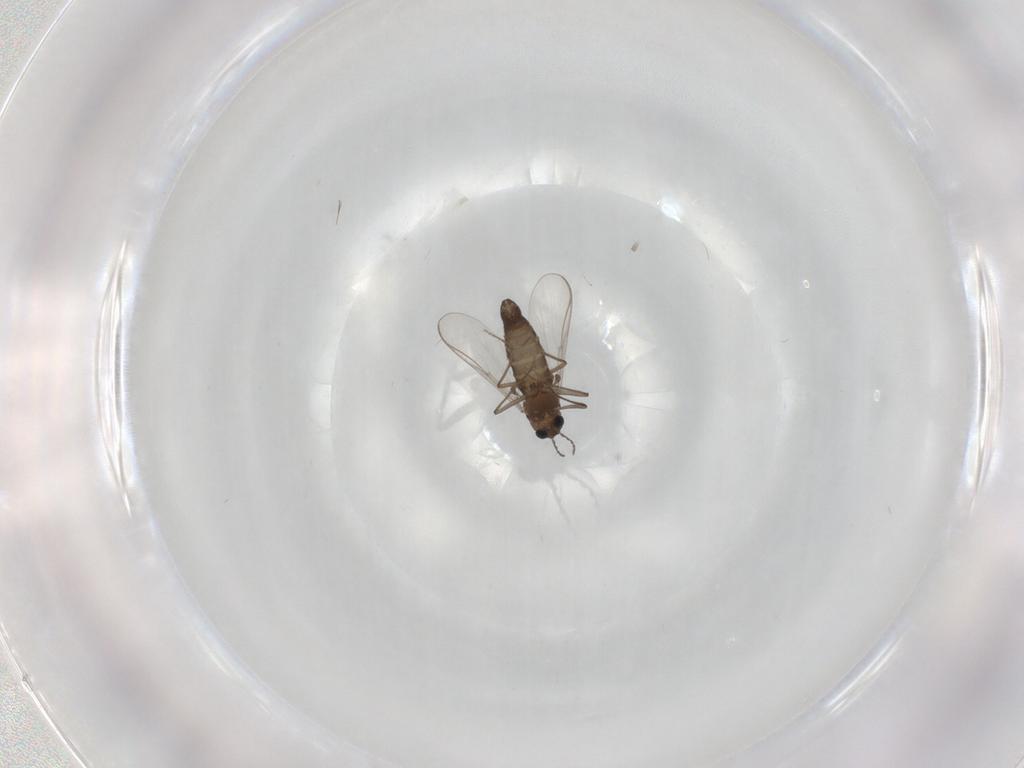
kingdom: Animalia
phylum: Arthropoda
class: Insecta
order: Diptera
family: Chironomidae
